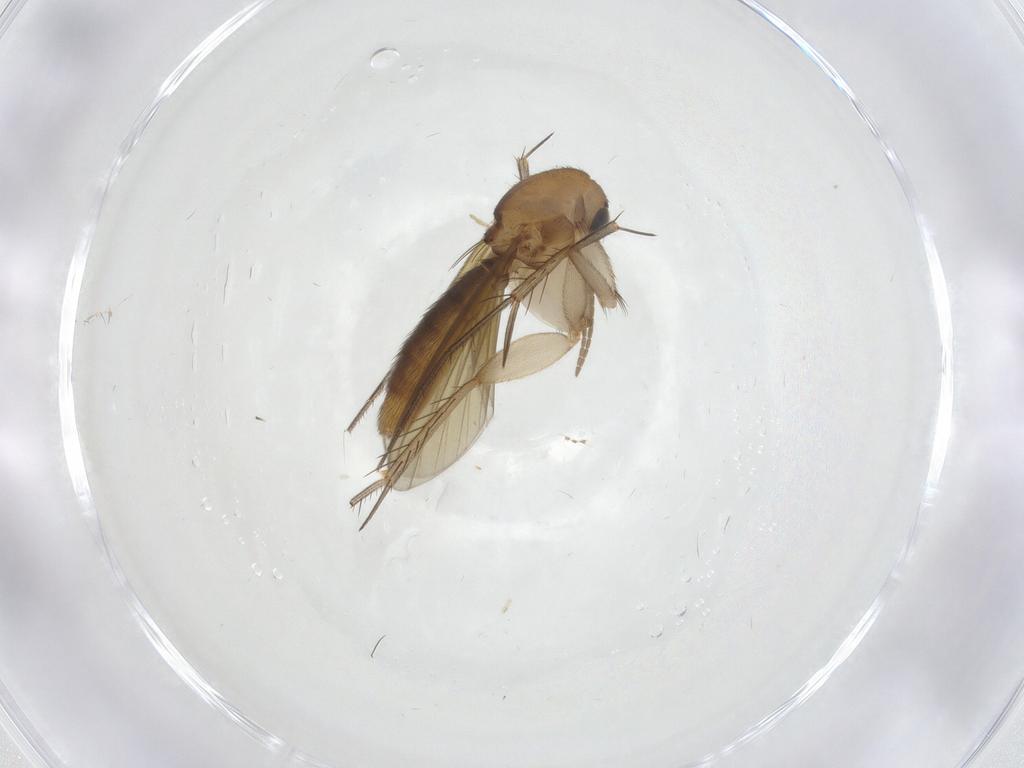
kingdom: Animalia
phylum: Arthropoda
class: Insecta
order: Diptera
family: Mycetophilidae
